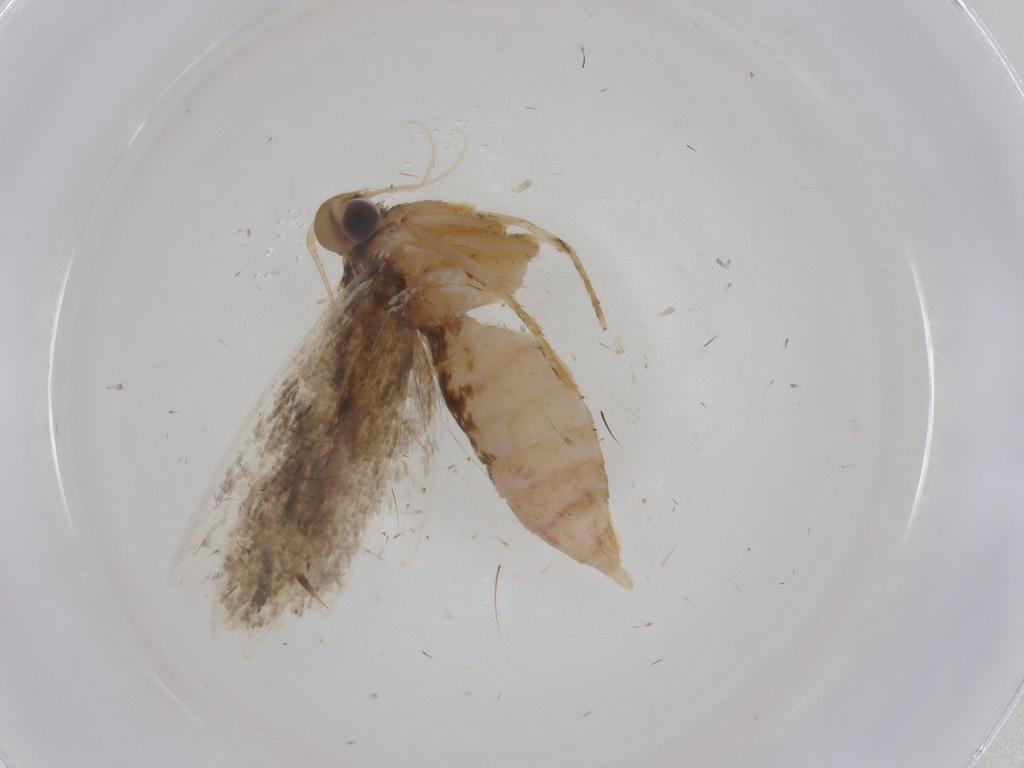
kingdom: Animalia
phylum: Arthropoda
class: Insecta
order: Lepidoptera
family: Gelechiidae
